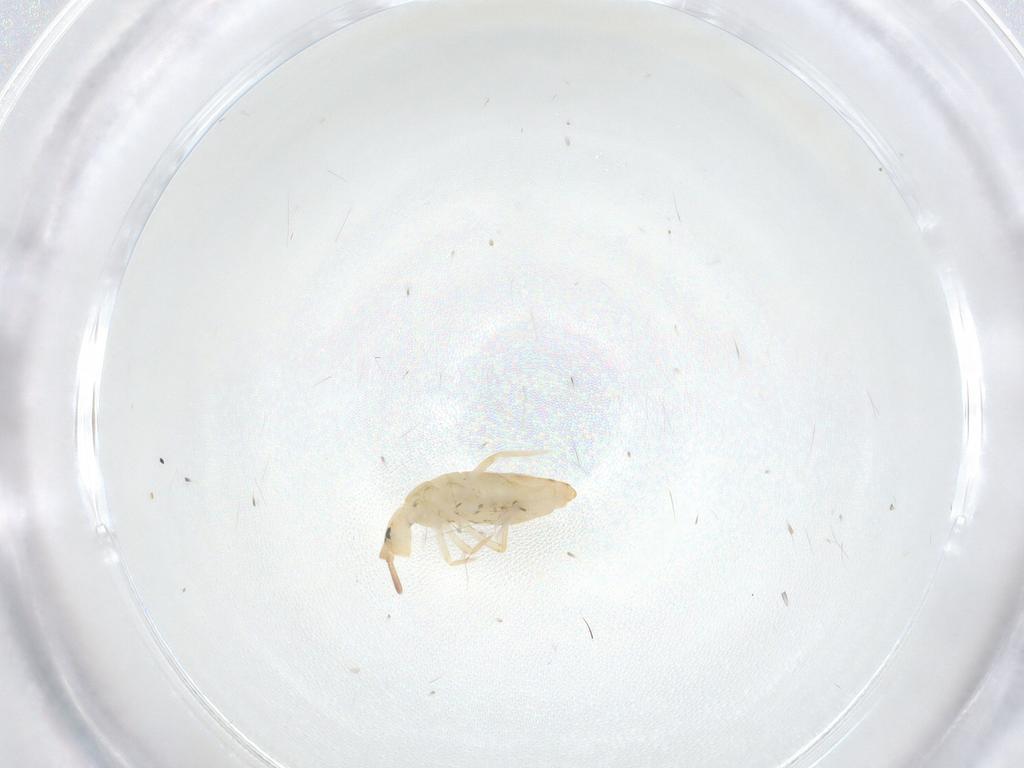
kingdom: Animalia
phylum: Arthropoda
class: Collembola
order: Entomobryomorpha
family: Entomobryidae
